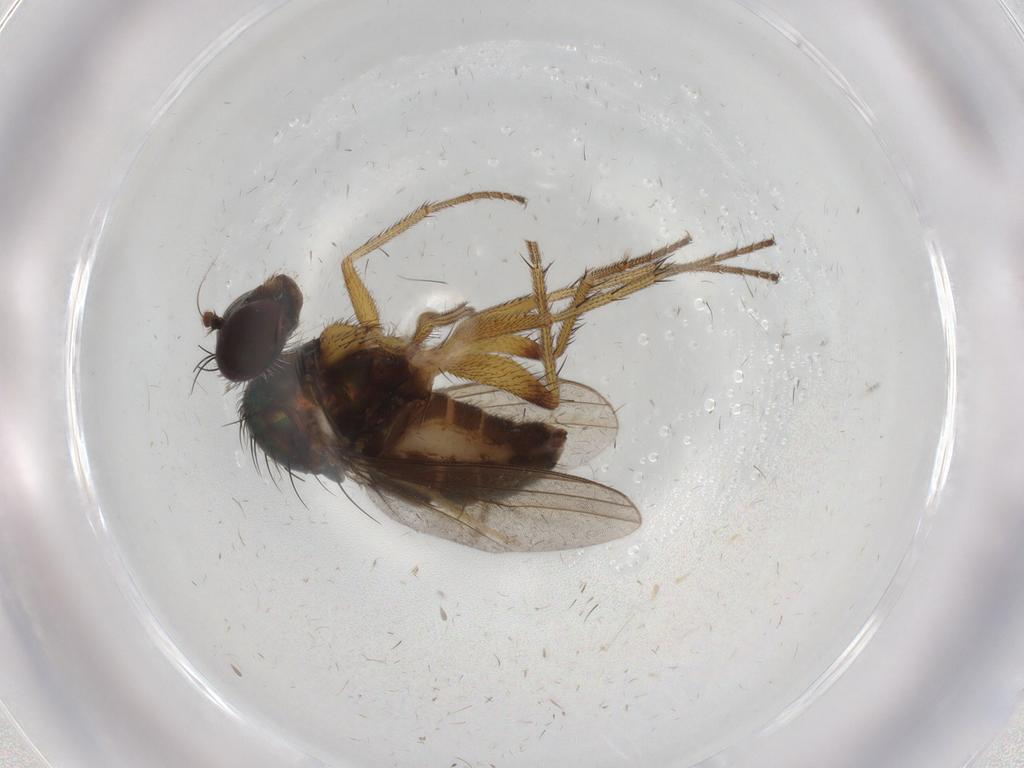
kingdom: Animalia
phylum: Arthropoda
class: Insecta
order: Diptera
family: Dolichopodidae
